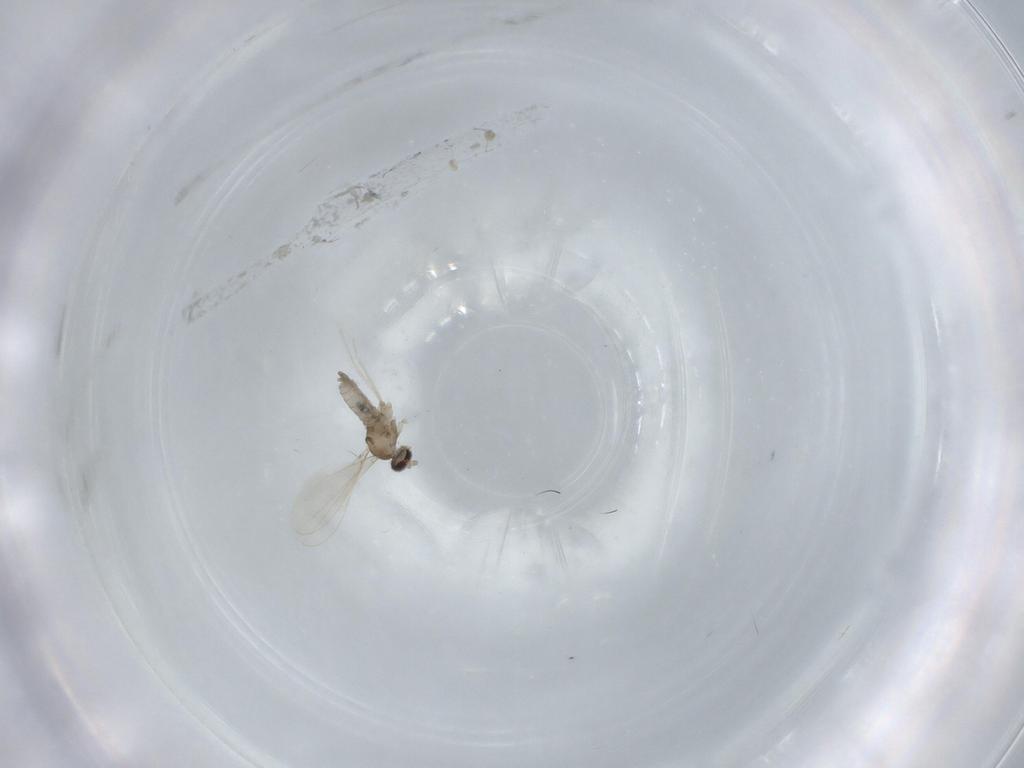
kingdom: Animalia
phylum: Arthropoda
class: Insecta
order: Diptera
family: Cecidomyiidae
